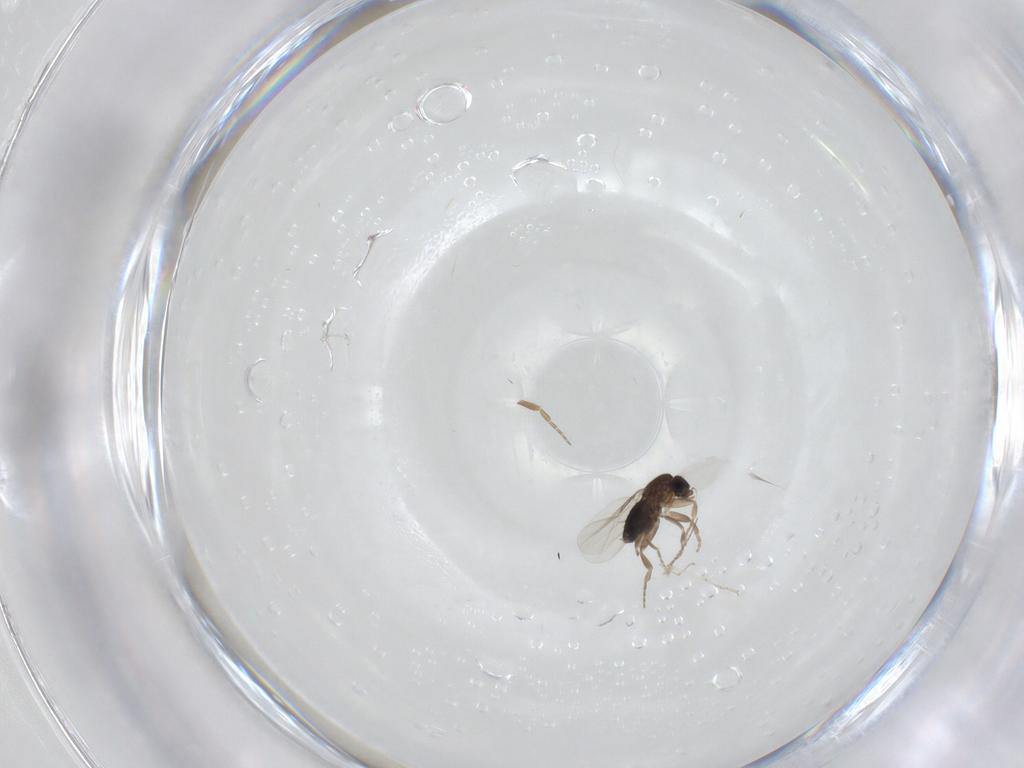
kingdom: Animalia
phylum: Arthropoda
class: Insecta
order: Diptera
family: Phoridae
